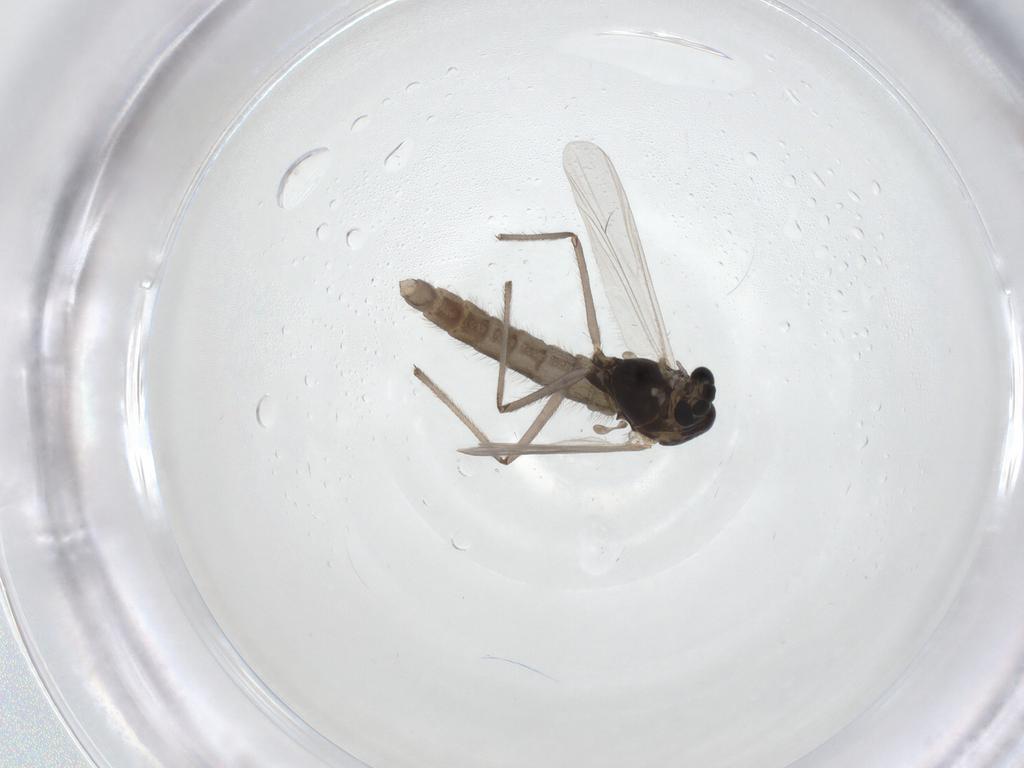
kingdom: Animalia
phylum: Arthropoda
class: Insecta
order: Diptera
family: Chironomidae
